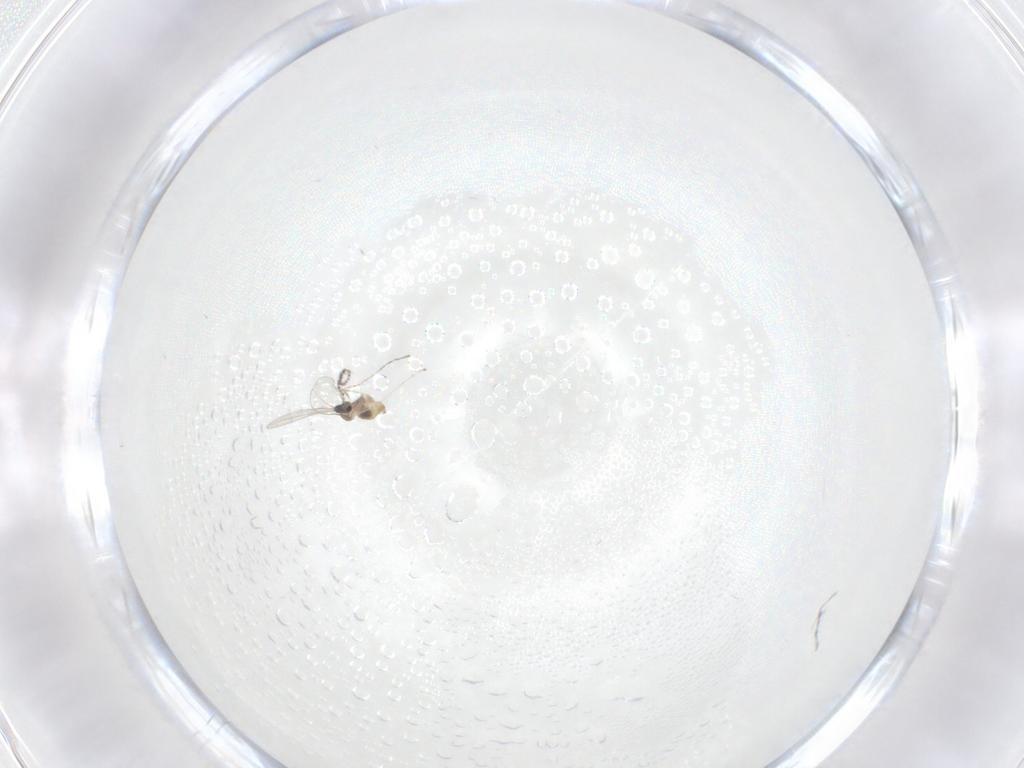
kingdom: Animalia
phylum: Arthropoda
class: Insecta
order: Diptera
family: Cecidomyiidae
